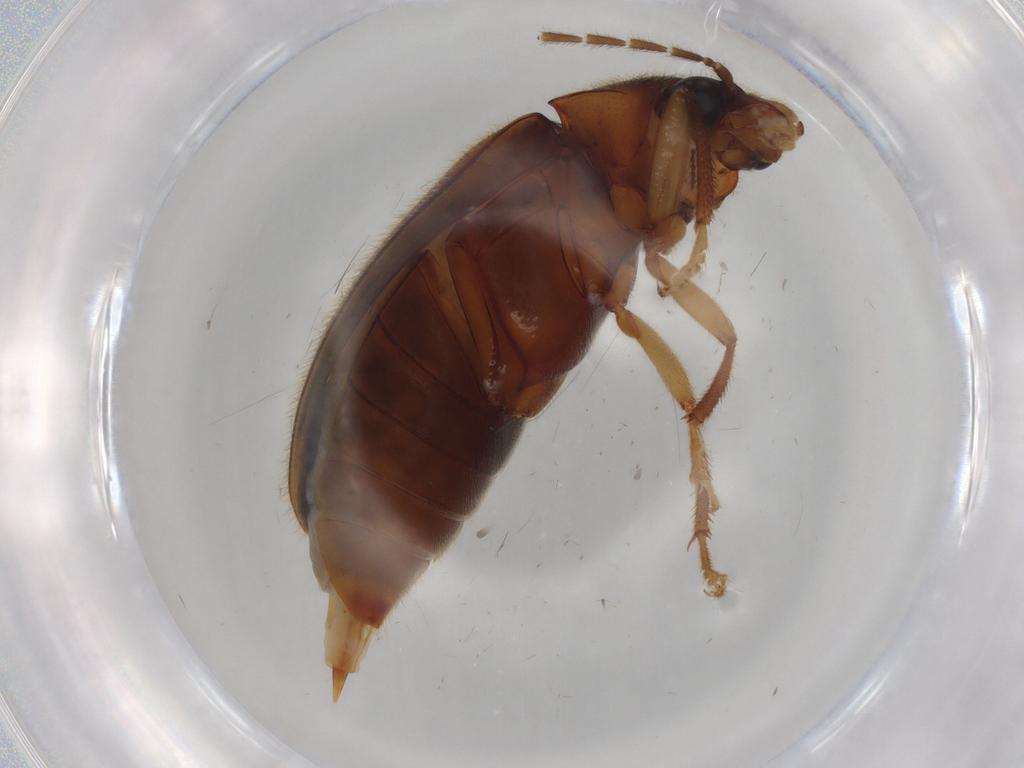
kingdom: Animalia
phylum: Arthropoda
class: Insecta
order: Coleoptera
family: Ptilodactylidae
